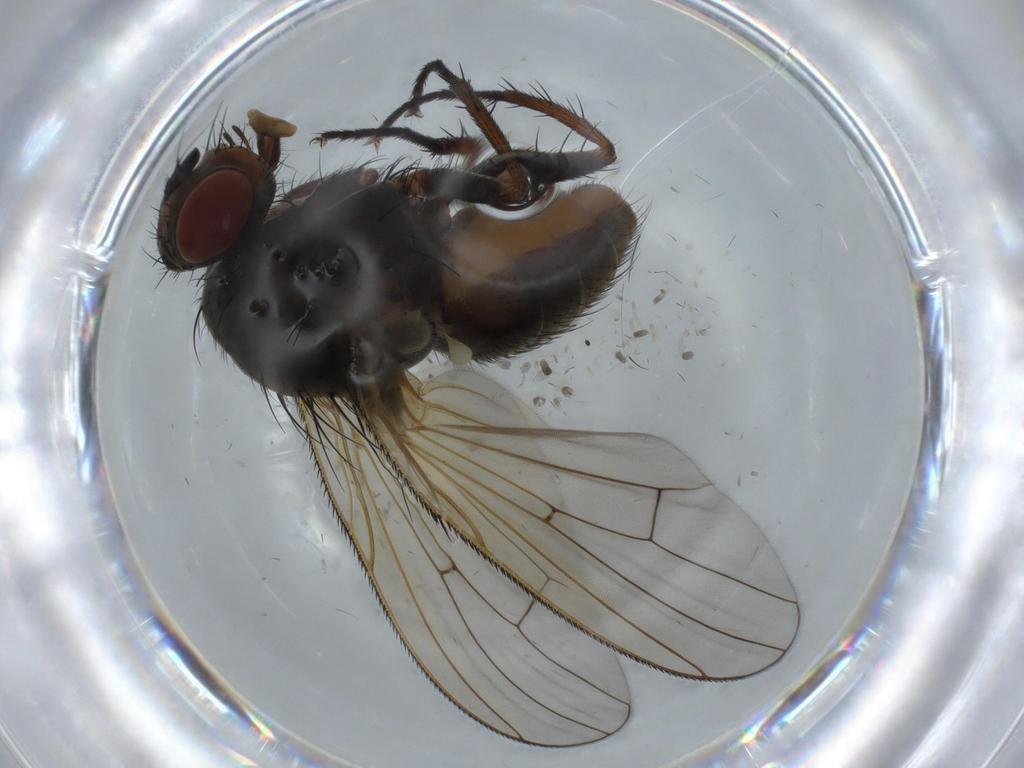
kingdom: Animalia
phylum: Arthropoda
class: Insecta
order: Diptera
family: Anthomyiidae
